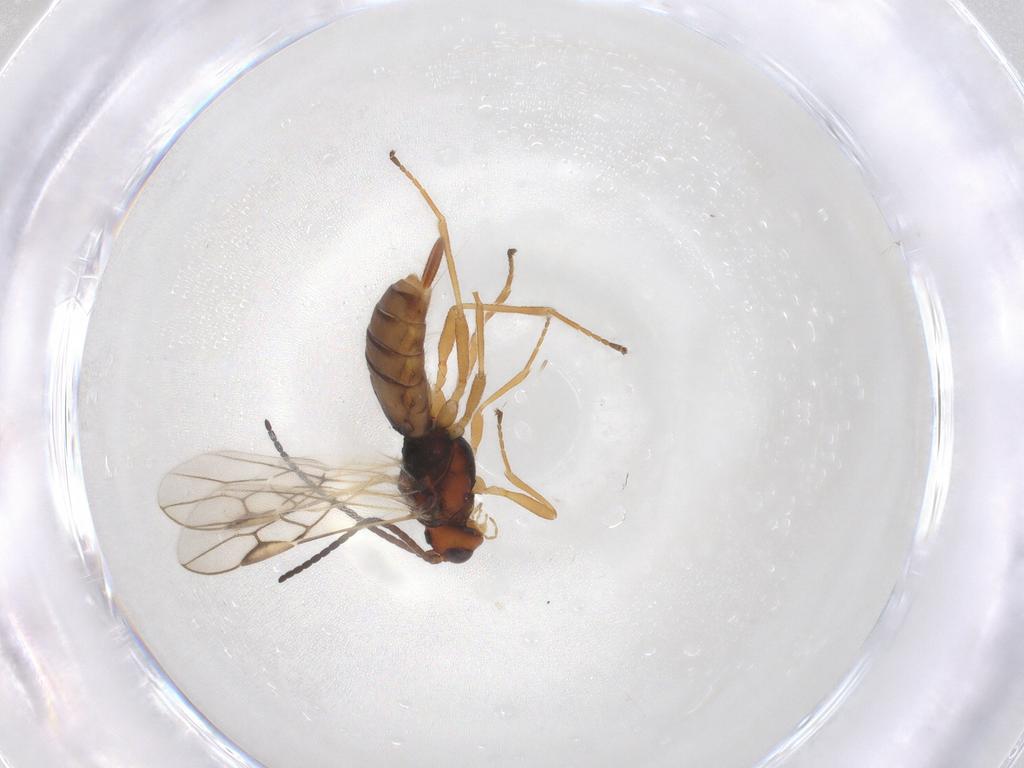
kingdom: Animalia
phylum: Arthropoda
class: Insecta
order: Hymenoptera
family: Braconidae
